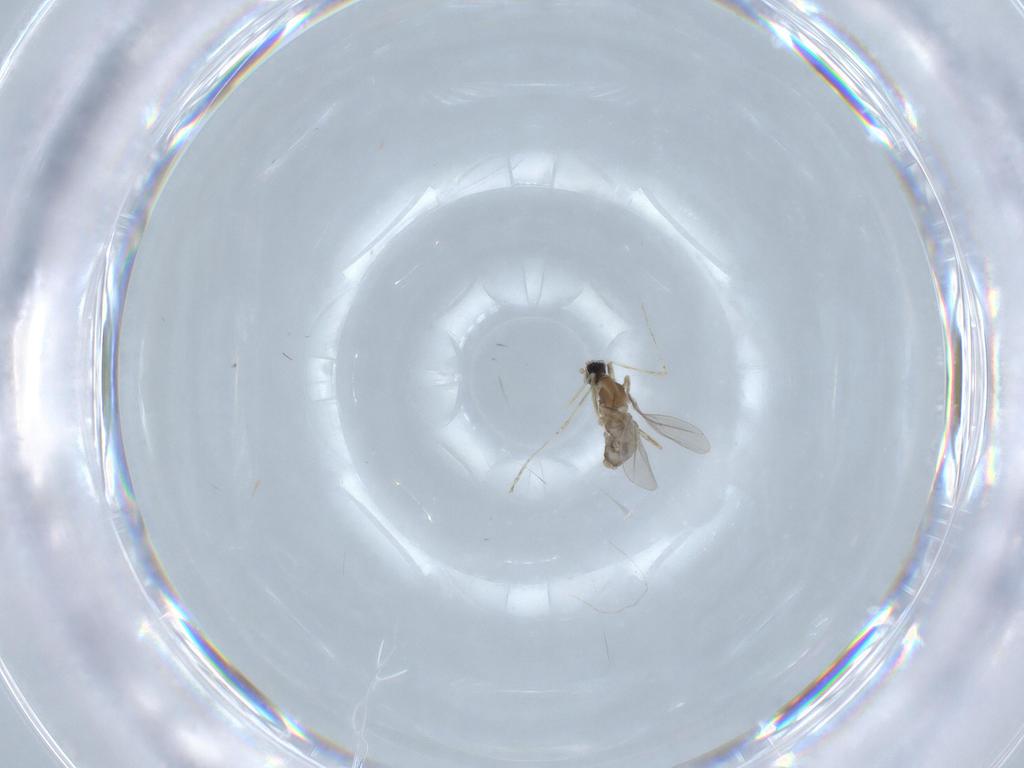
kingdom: Animalia
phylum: Arthropoda
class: Insecta
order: Diptera
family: Cecidomyiidae
